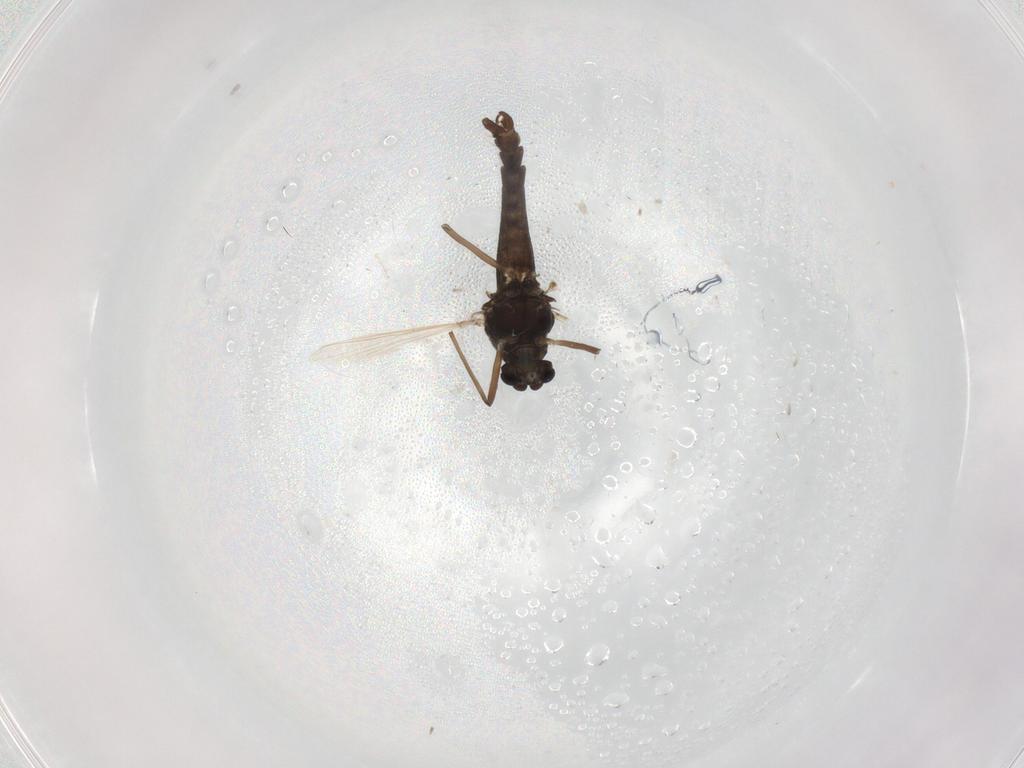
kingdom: Animalia
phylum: Arthropoda
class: Insecta
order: Diptera
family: Chironomidae
